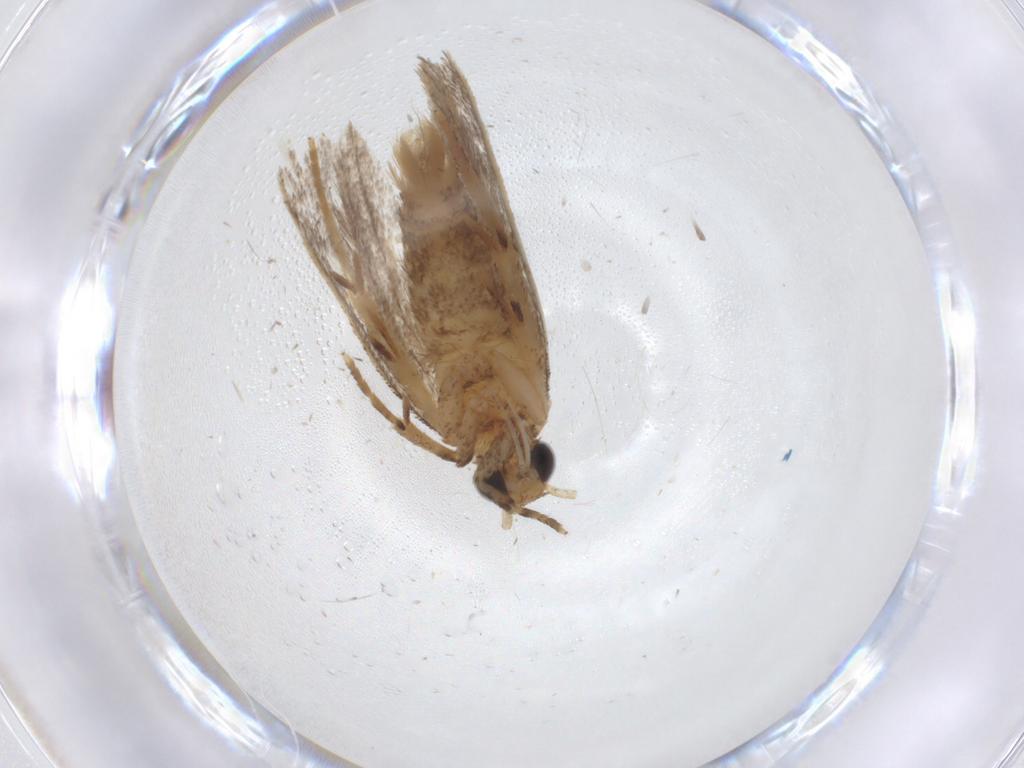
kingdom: Animalia
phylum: Arthropoda
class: Insecta
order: Lepidoptera
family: Oecophoridae
